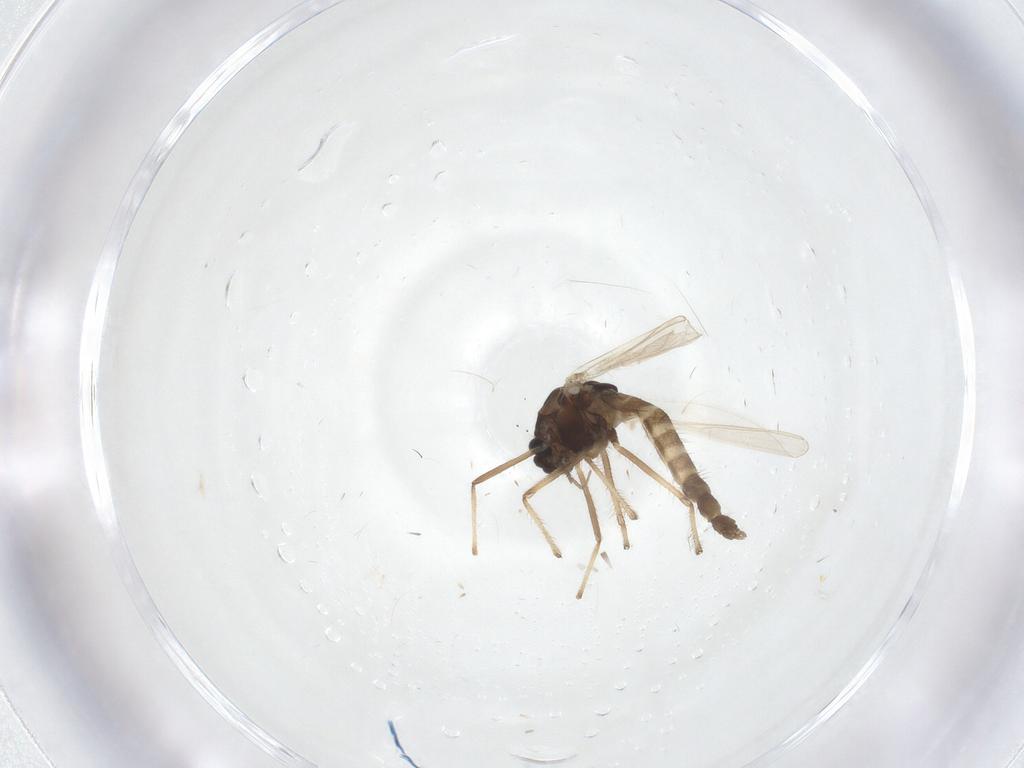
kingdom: Animalia
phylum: Arthropoda
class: Insecta
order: Diptera
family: Chironomidae
